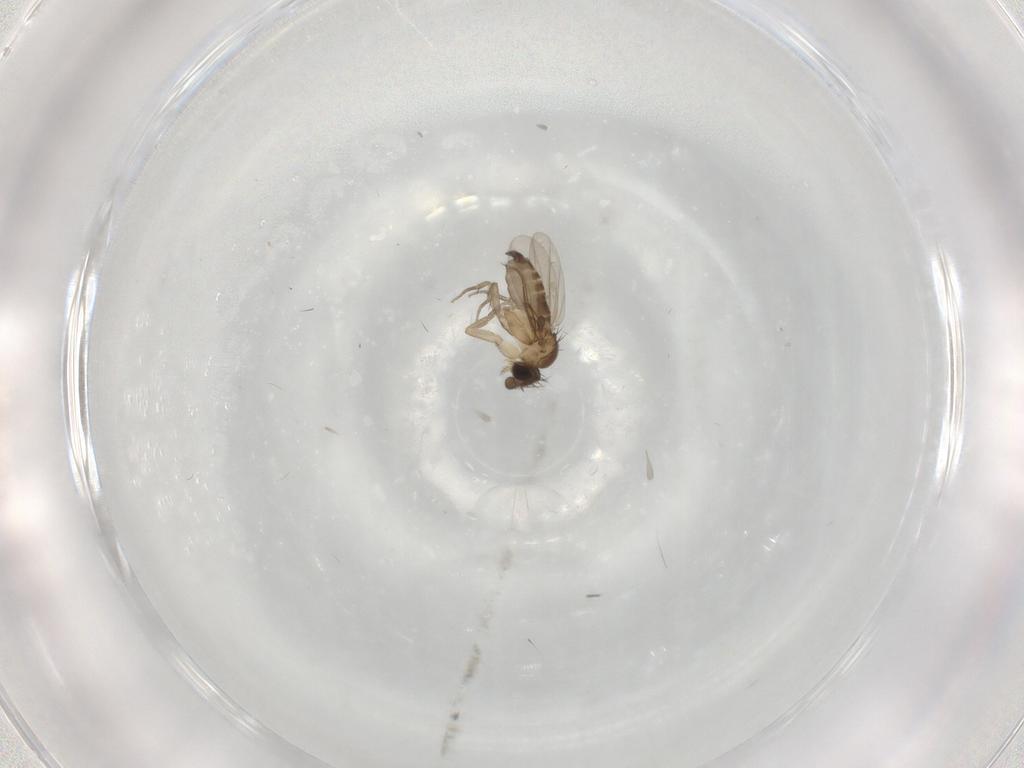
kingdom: Animalia
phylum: Arthropoda
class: Insecta
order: Diptera
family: Phoridae
